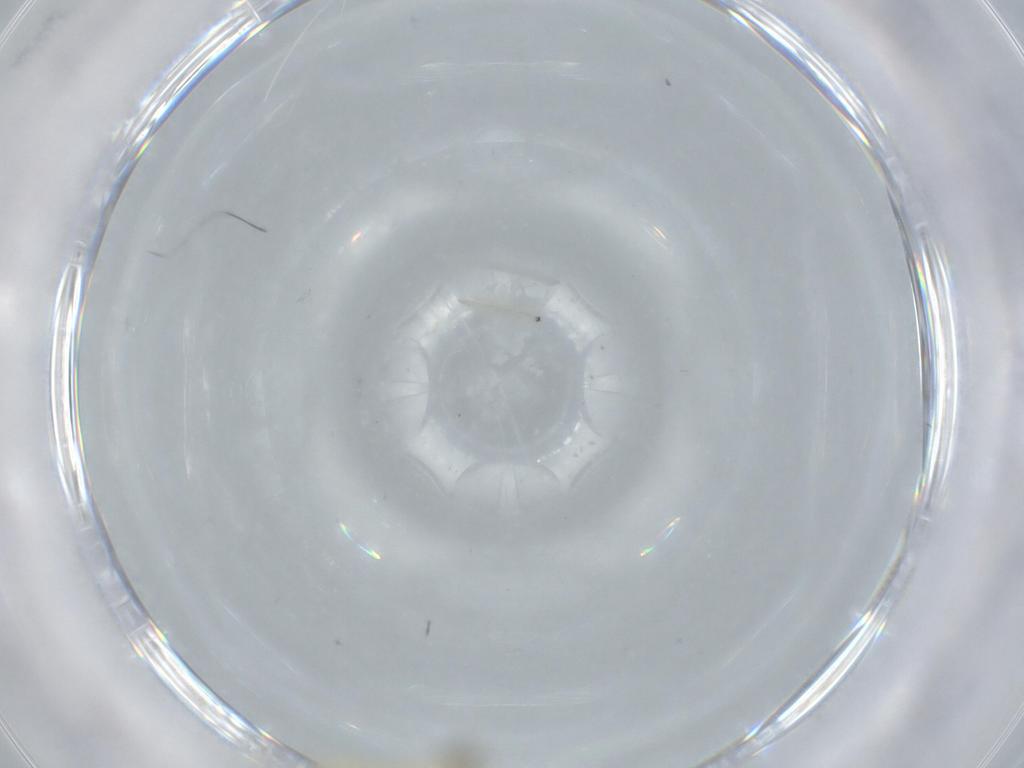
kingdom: Animalia
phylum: Arthropoda
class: Insecta
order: Diptera
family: Chironomidae
